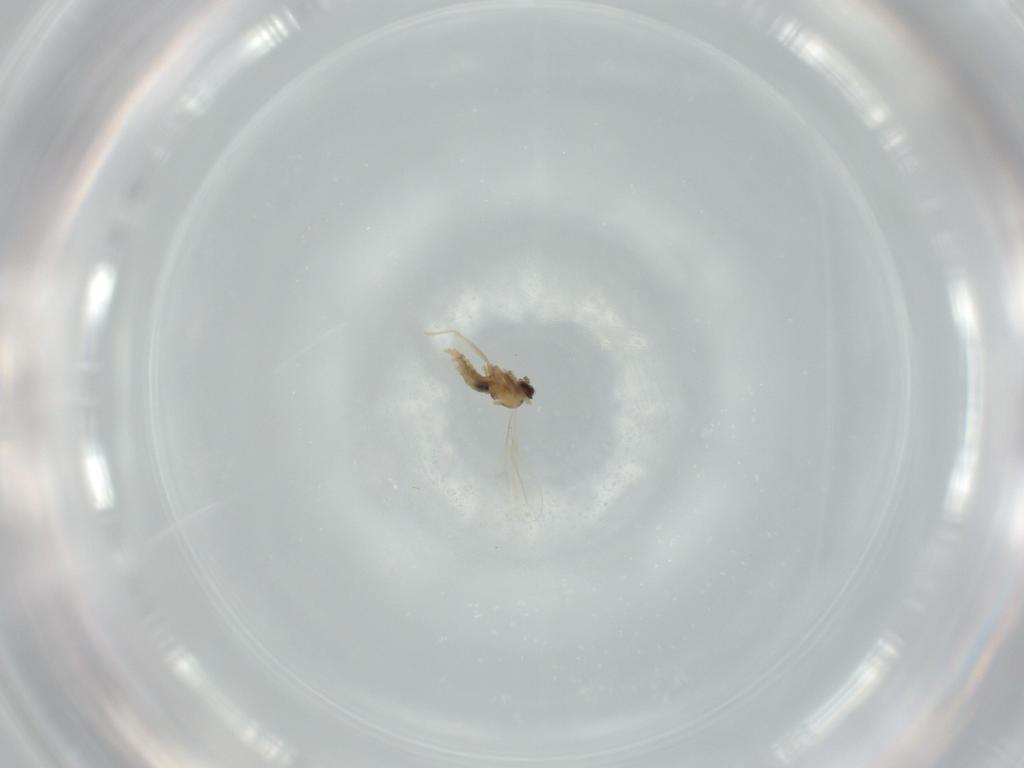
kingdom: Animalia
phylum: Arthropoda
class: Insecta
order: Diptera
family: Chironomidae
